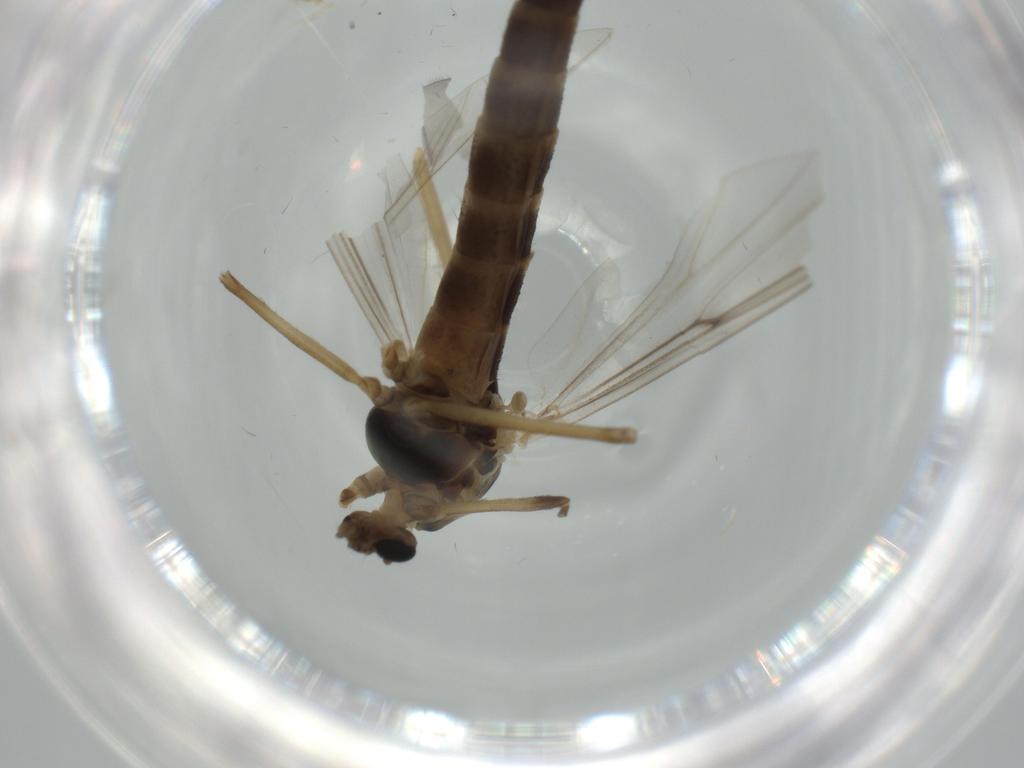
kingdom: Animalia
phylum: Arthropoda
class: Insecta
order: Diptera
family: Chironomidae
